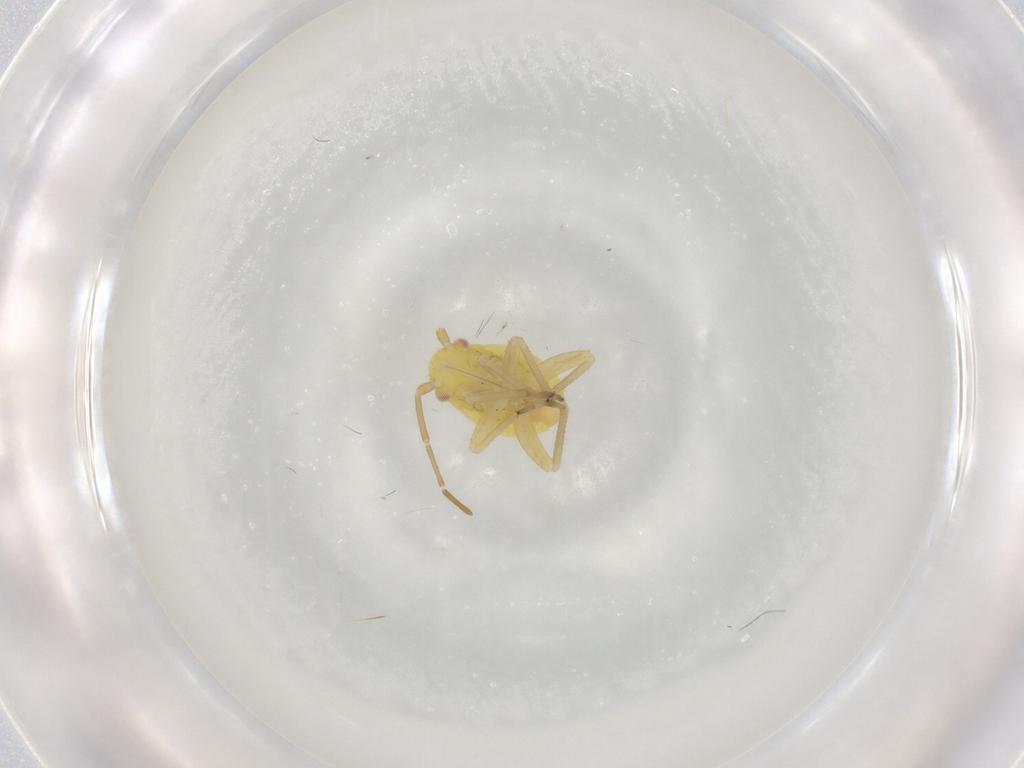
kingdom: Animalia
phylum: Arthropoda
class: Insecta
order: Hemiptera
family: Miridae
